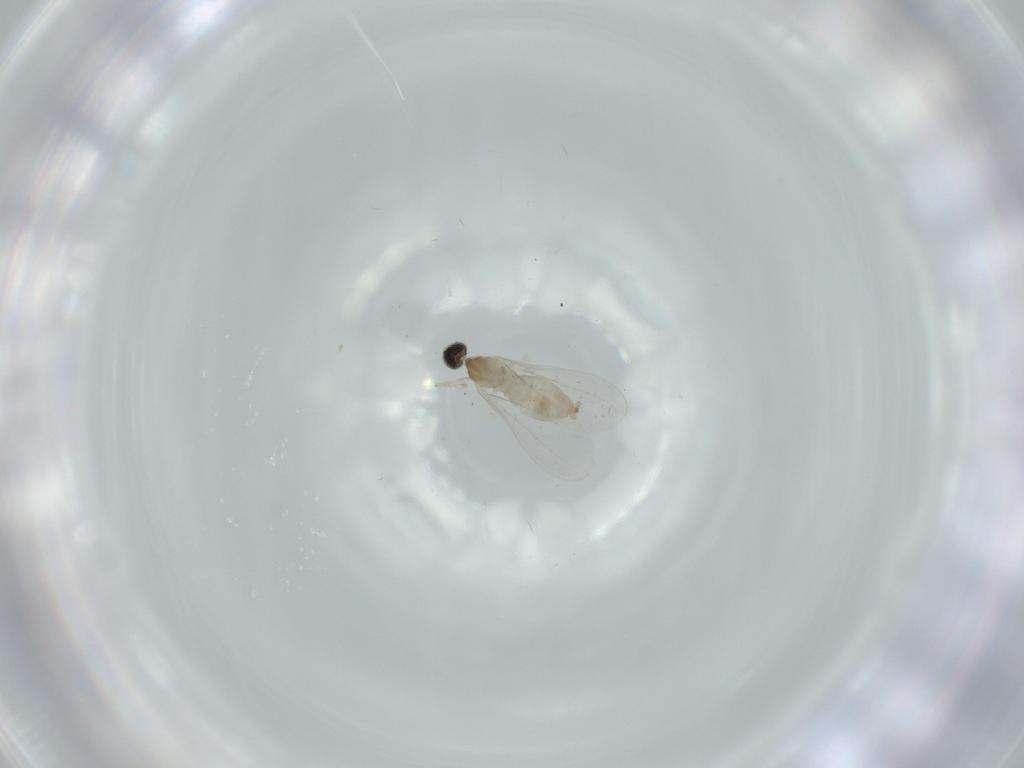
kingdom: Animalia
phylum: Arthropoda
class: Insecta
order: Diptera
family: Cecidomyiidae
